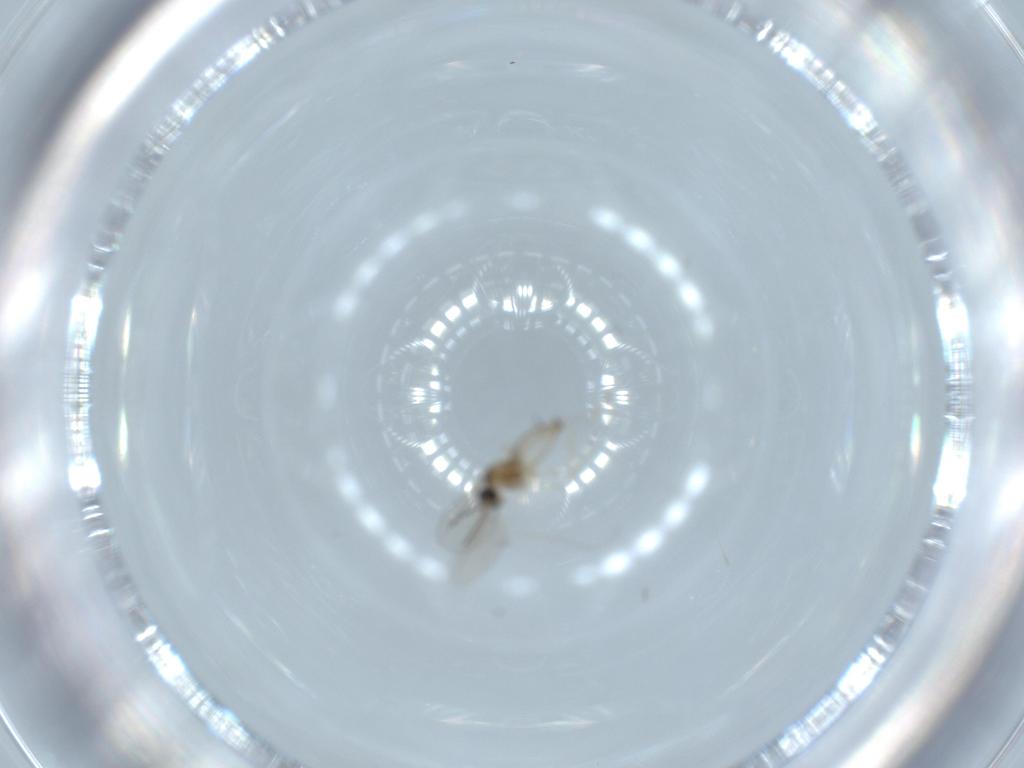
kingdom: Animalia
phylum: Arthropoda
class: Insecta
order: Diptera
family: Cecidomyiidae
